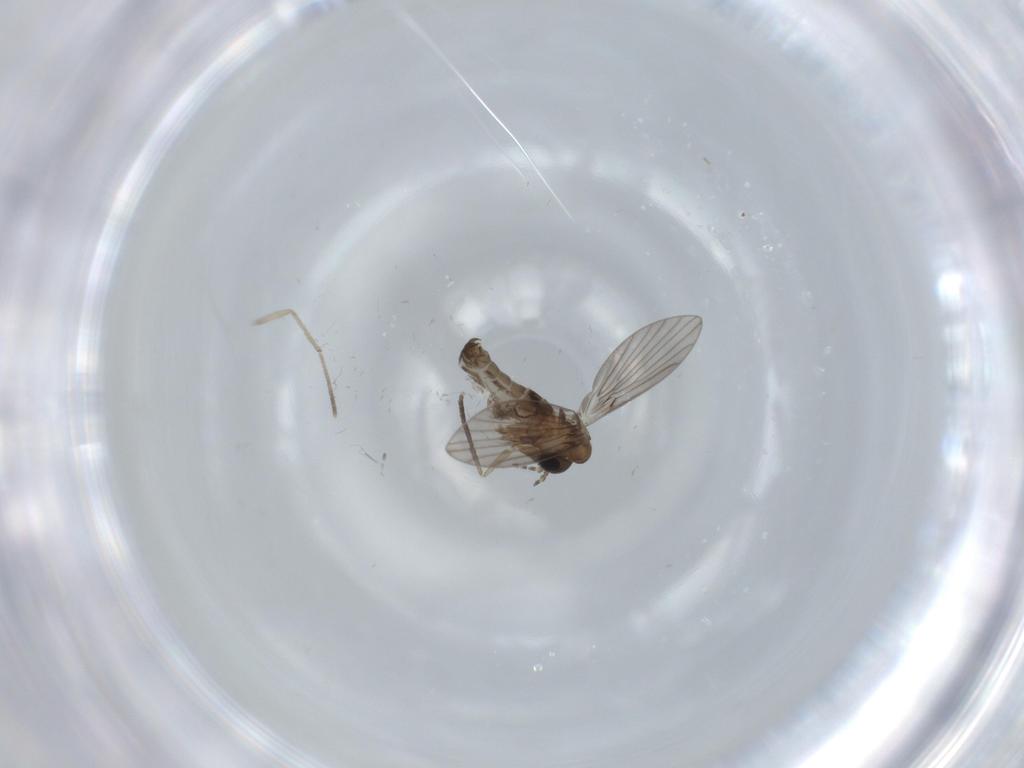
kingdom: Animalia
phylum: Arthropoda
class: Insecta
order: Diptera
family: Psychodidae
